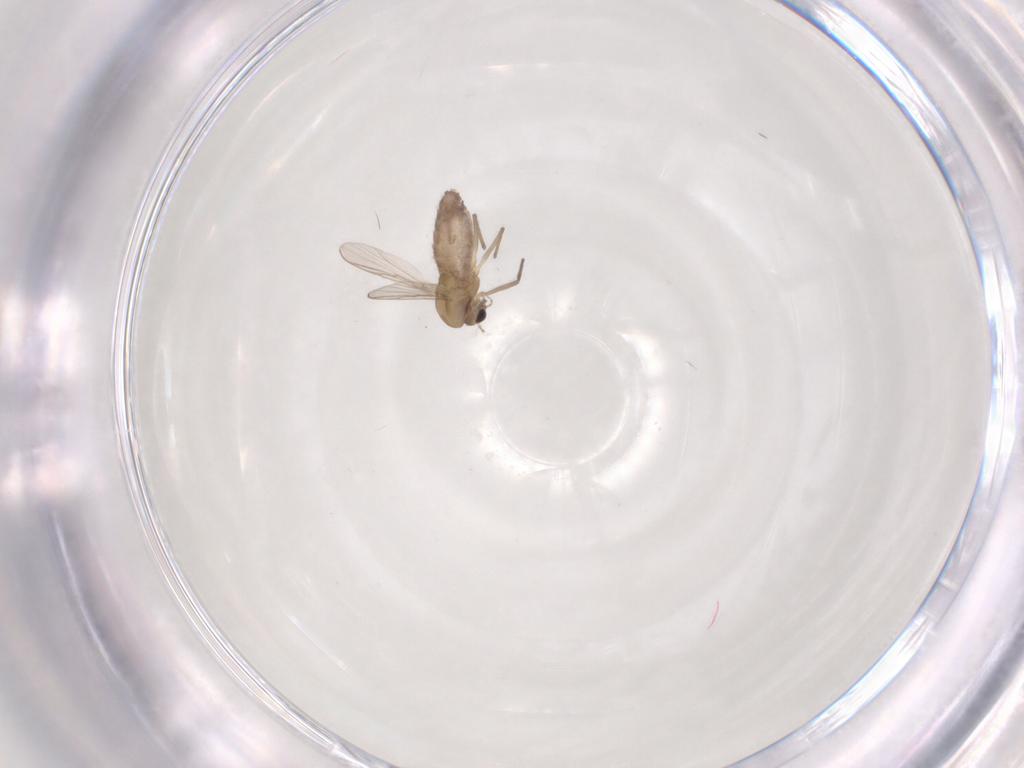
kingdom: Animalia
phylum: Arthropoda
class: Insecta
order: Diptera
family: Chironomidae
